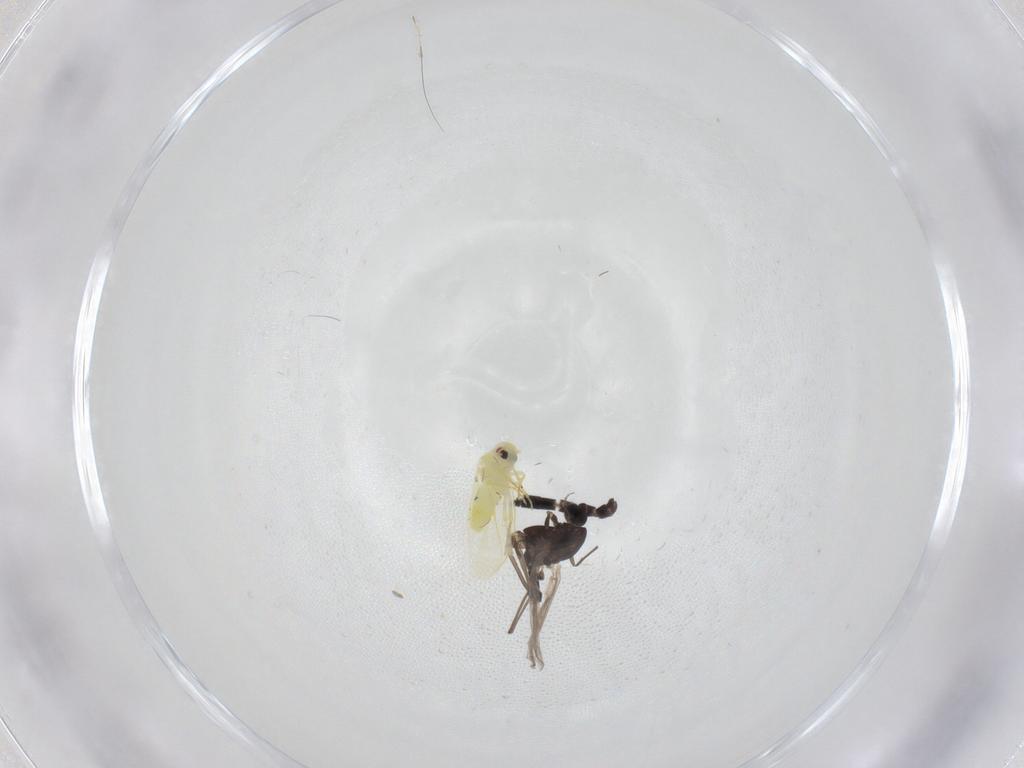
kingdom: Animalia
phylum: Arthropoda
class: Insecta
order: Diptera
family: Chironomidae
